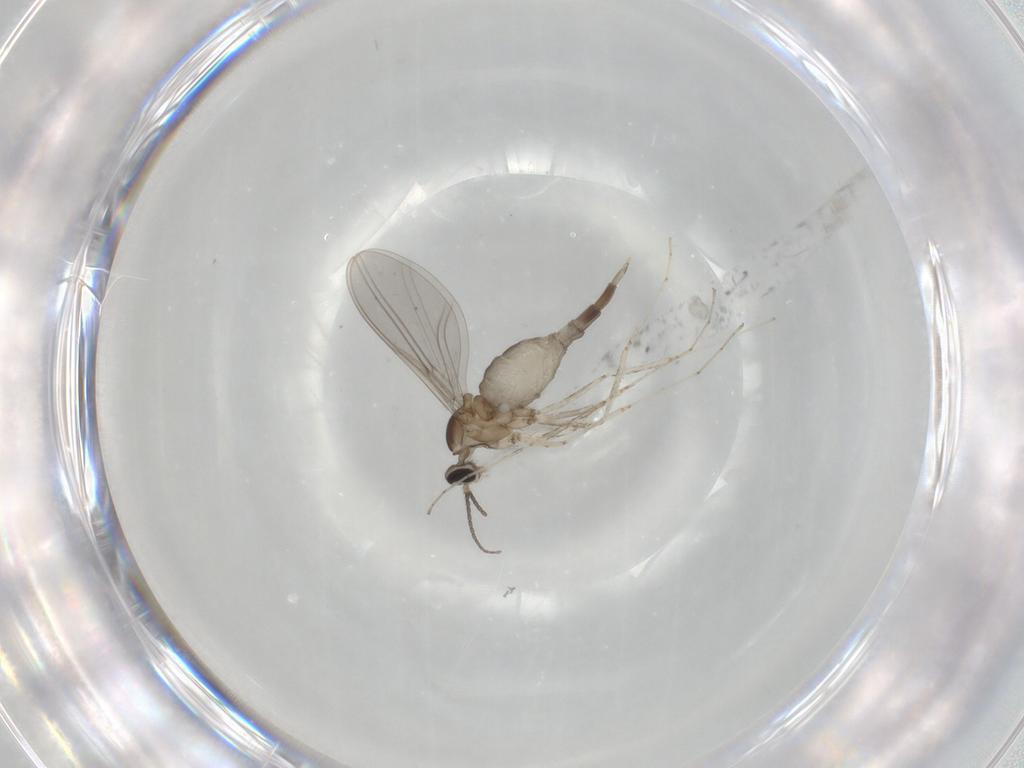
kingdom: Animalia
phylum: Arthropoda
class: Insecta
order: Diptera
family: Cecidomyiidae
